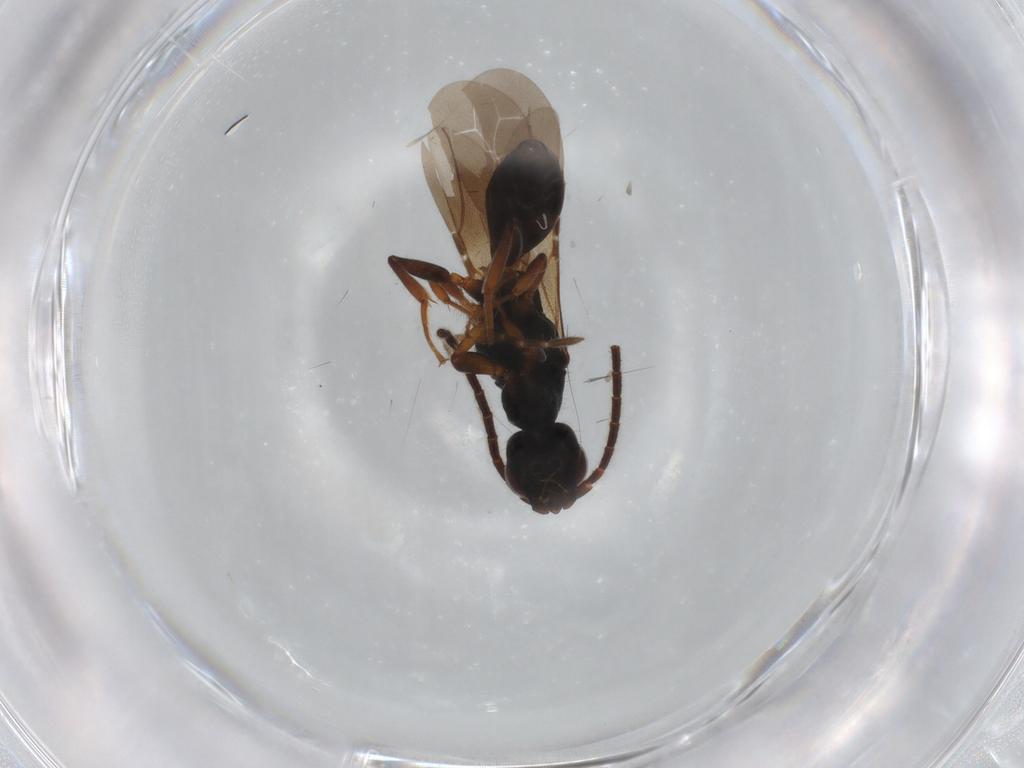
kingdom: Animalia
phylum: Arthropoda
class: Insecta
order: Hymenoptera
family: Bethylidae
